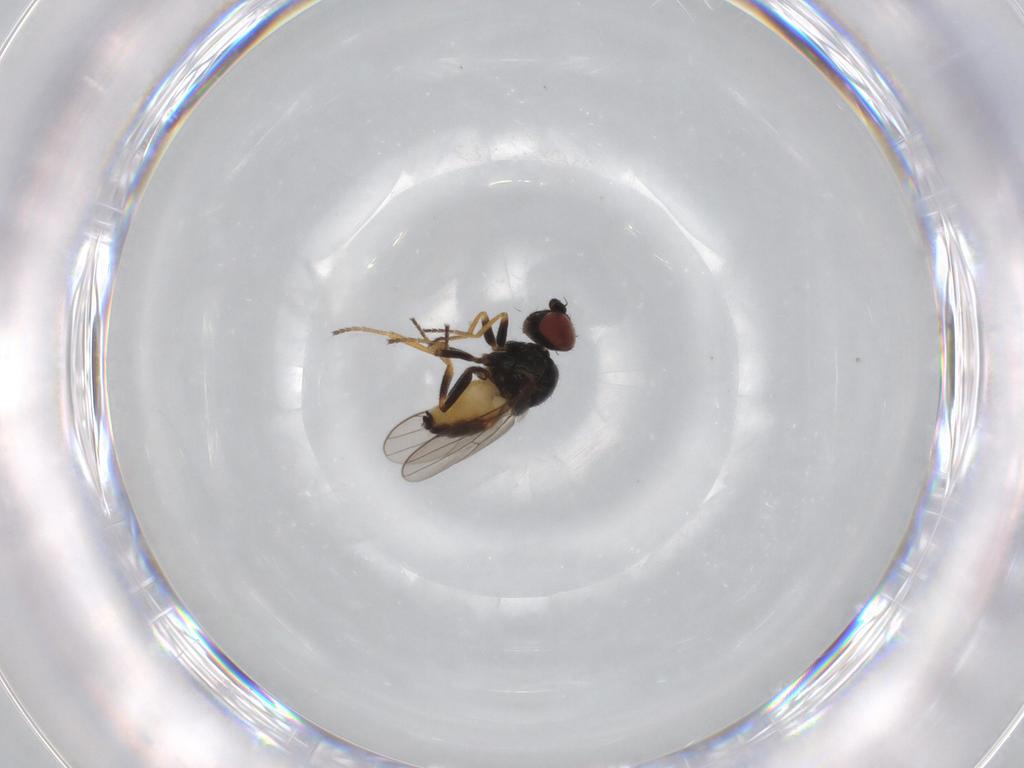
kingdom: Animalia
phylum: Arthropoda
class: Insecta
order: Diptera
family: Chloropidae
